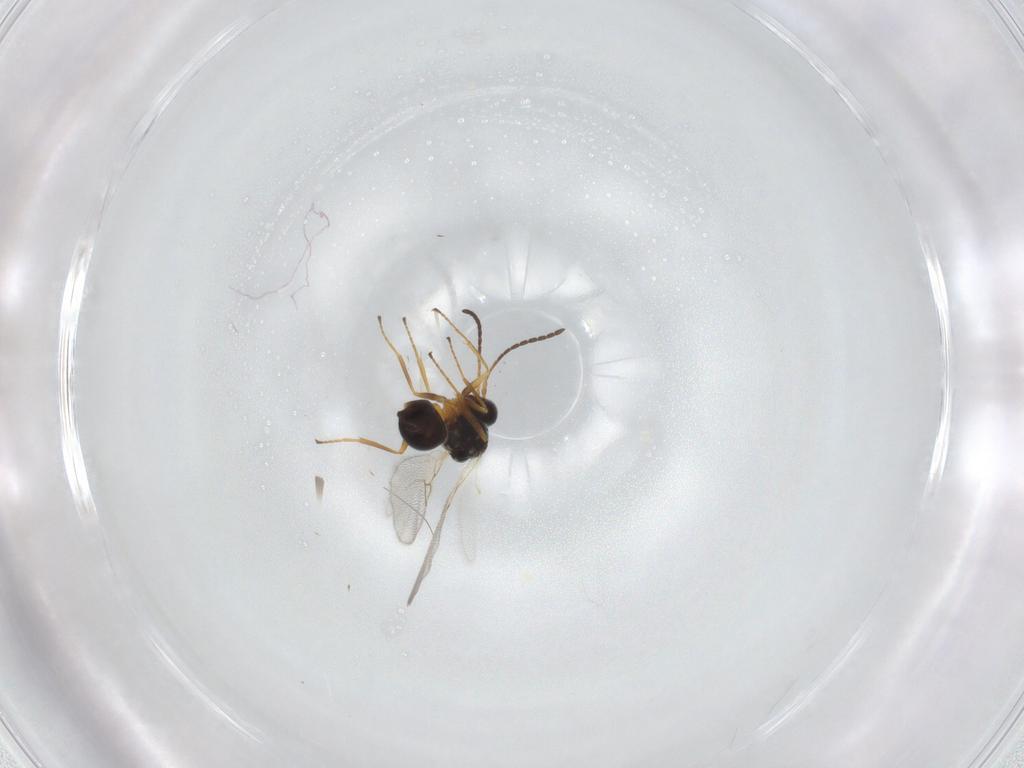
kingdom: Animalia
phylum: Arthropoda
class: Insecta
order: Hymenoptera
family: Figitidae
